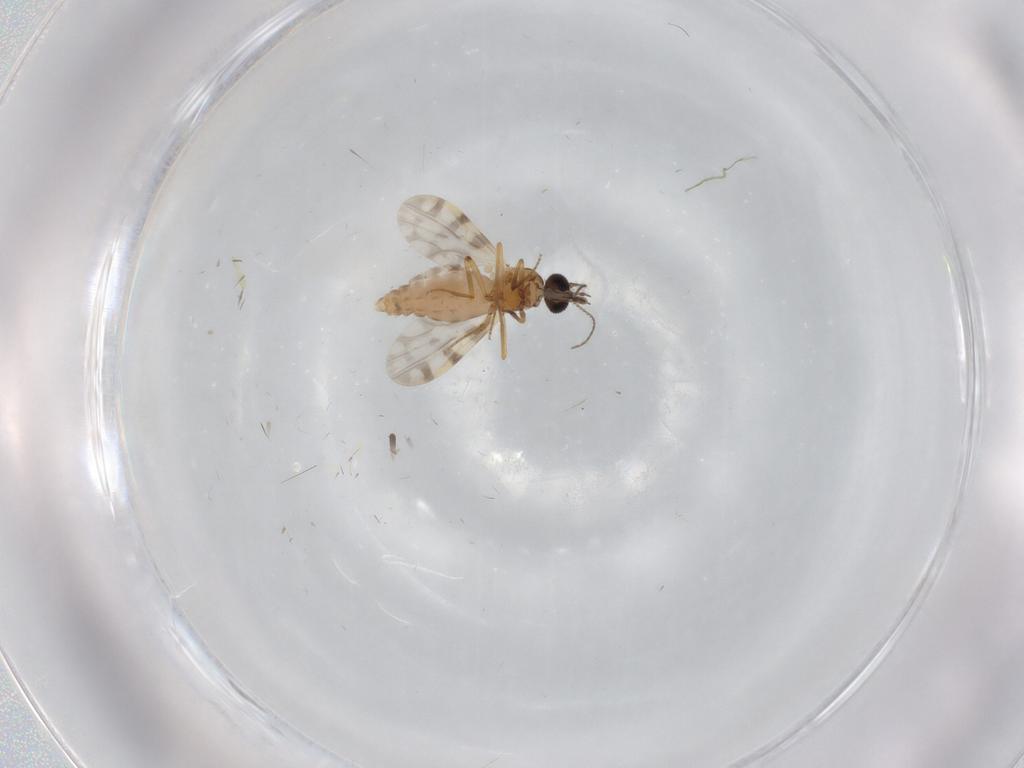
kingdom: Animalia
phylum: Arthropoda
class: Insecta
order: Diptera
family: Cecidomyiidae
